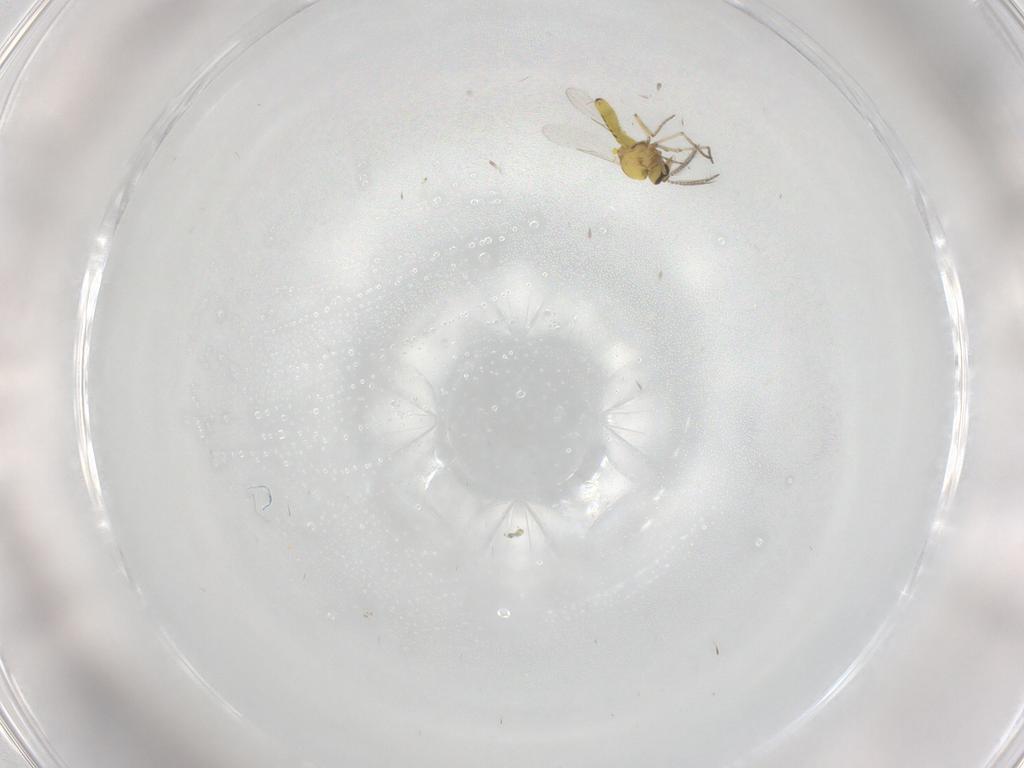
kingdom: Animalia
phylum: Arthropoda
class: Insecta
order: Diptera
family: Ceratopogonidae
